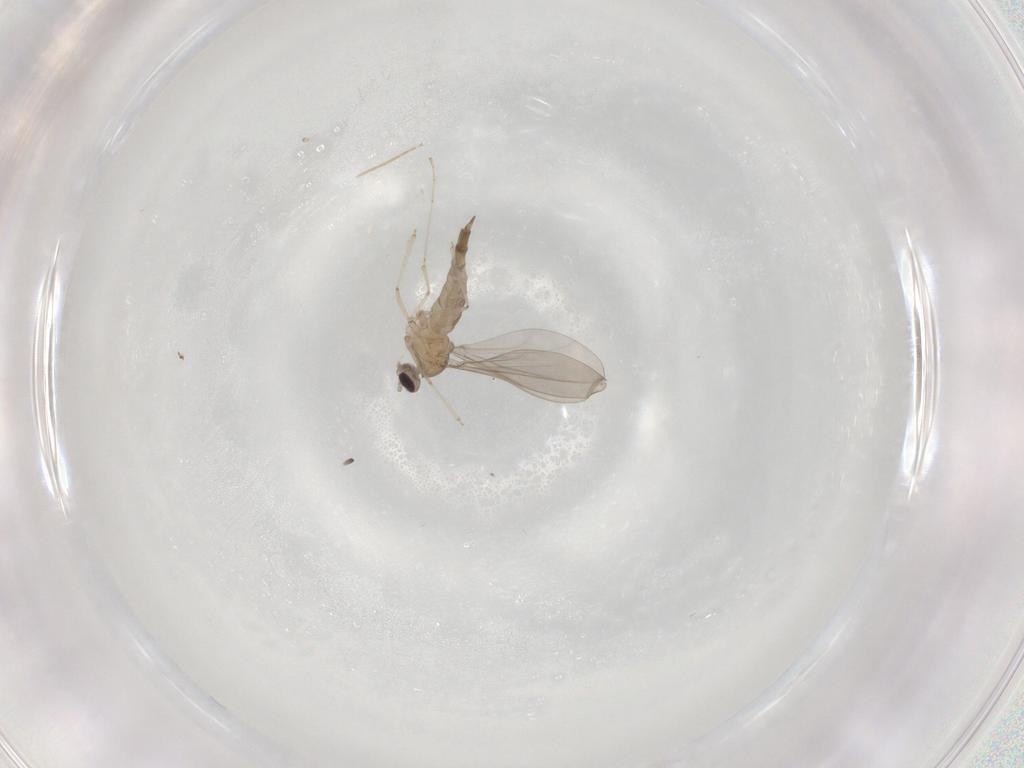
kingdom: Animalia
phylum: Arthropoda
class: Insecta
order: Diptera
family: Chironomidae
